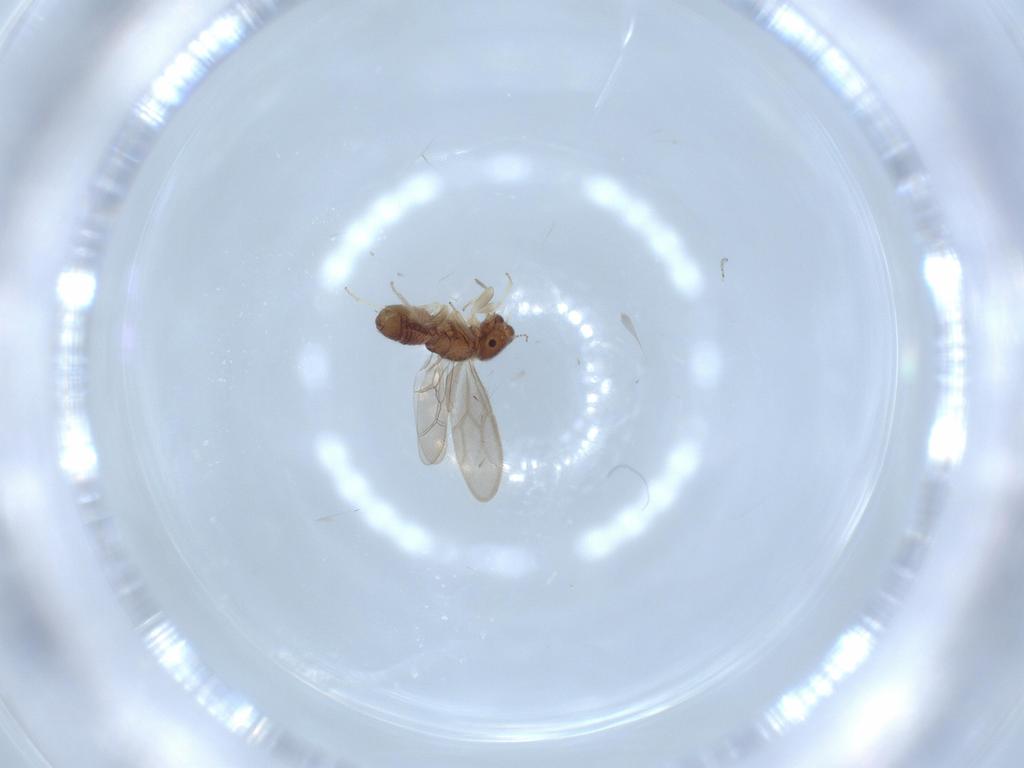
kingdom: Animalia
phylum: Arthropoda
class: Insecta
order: Psocodea
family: Archipsocidae
